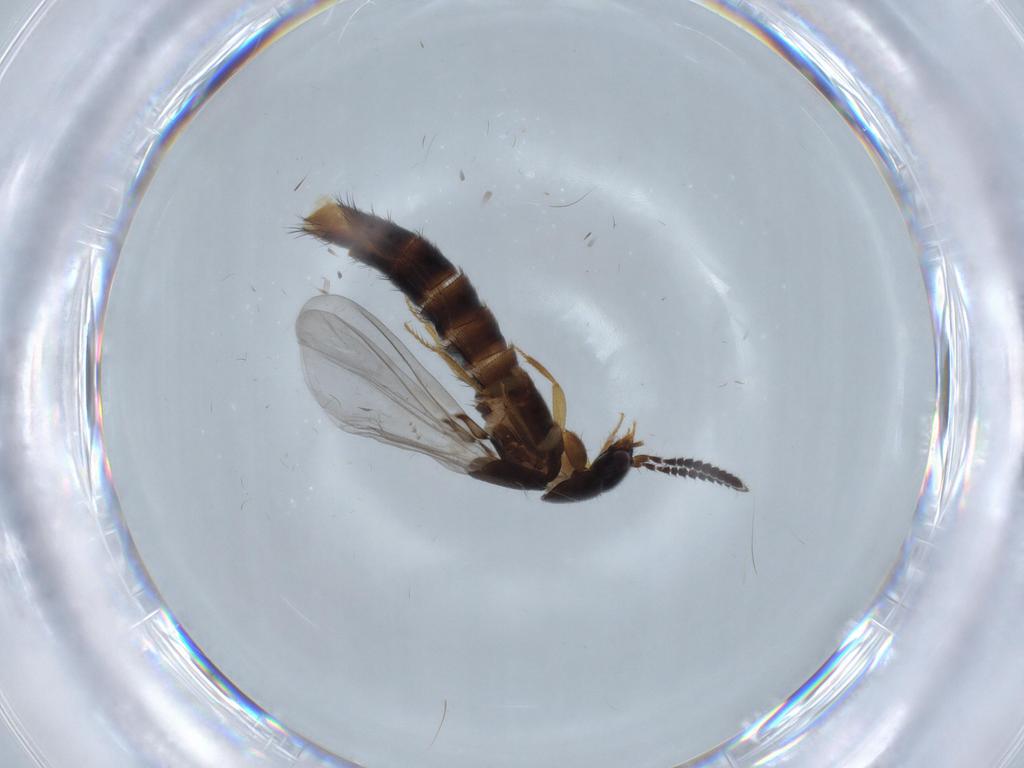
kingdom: Animalia
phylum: Arthropoda
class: Insecta
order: Coleoptera
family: Staphylinidae
